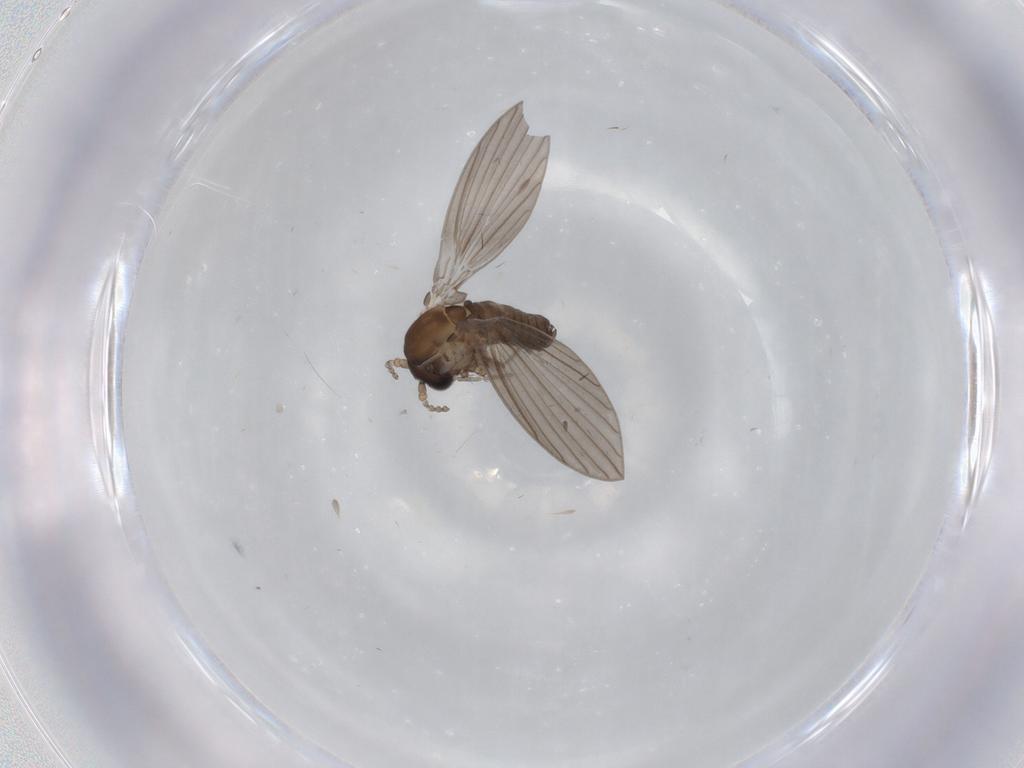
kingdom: Animalia
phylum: Arthropoda
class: Insecta
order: Diptera
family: Psychodidae
